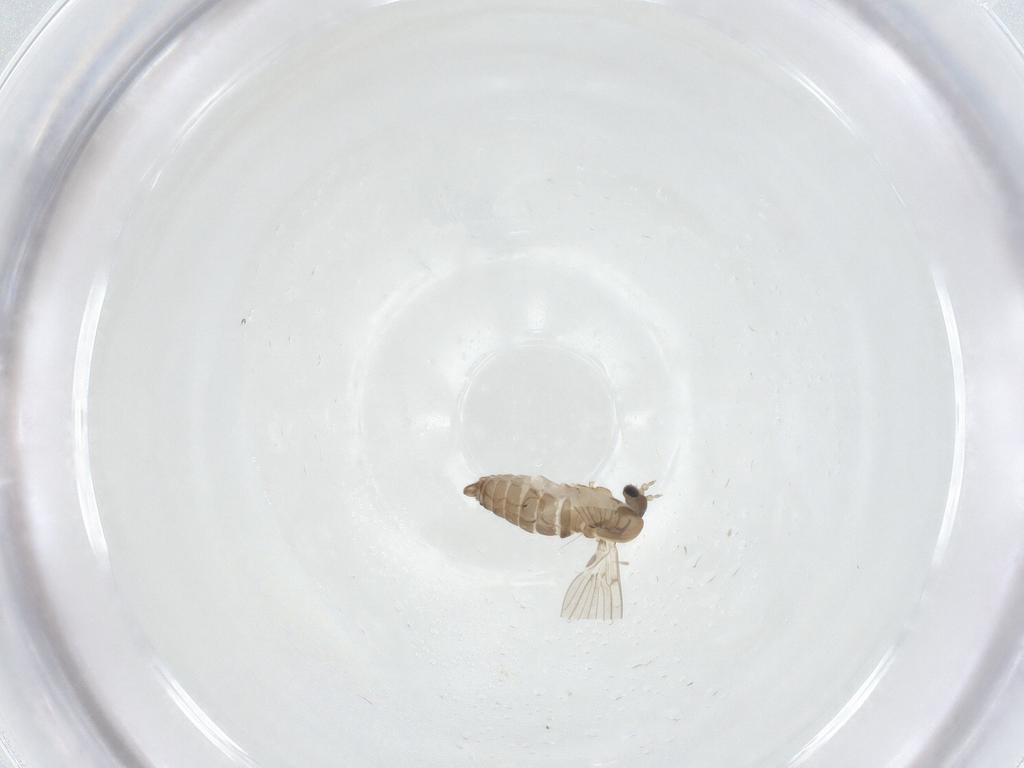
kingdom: Animalia
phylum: Arthropoda
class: Insecta
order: Diptera
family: Psychodidae
